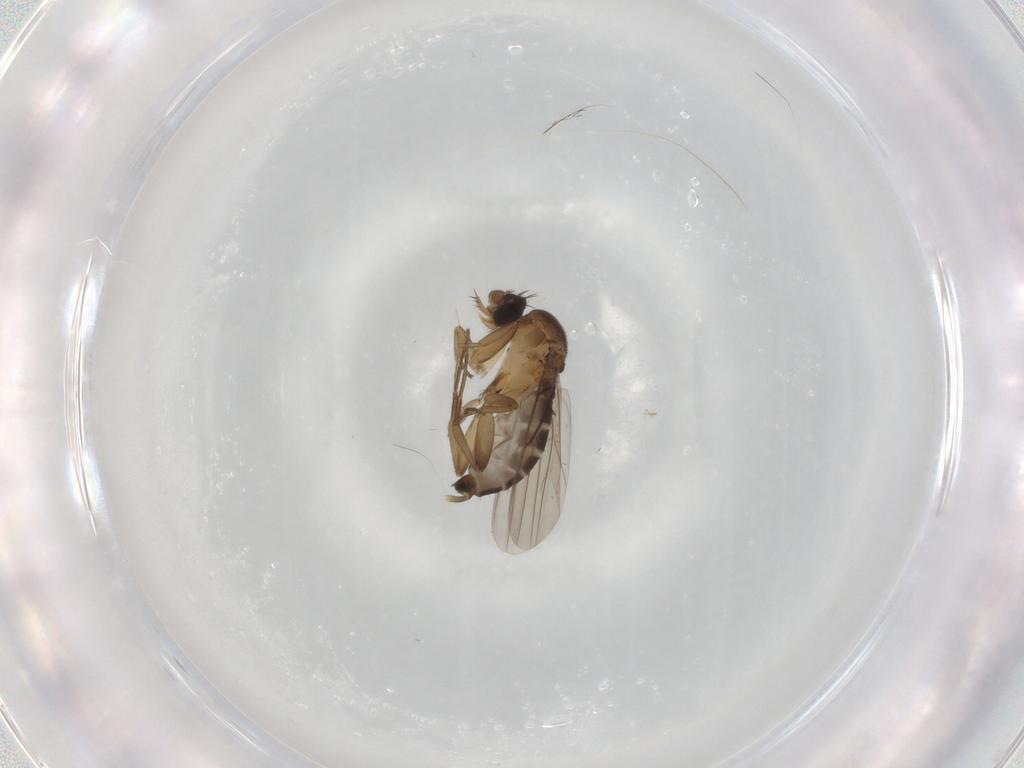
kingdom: Animalia
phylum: Arthropoda
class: Insecta
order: Diptera
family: Phoridae
